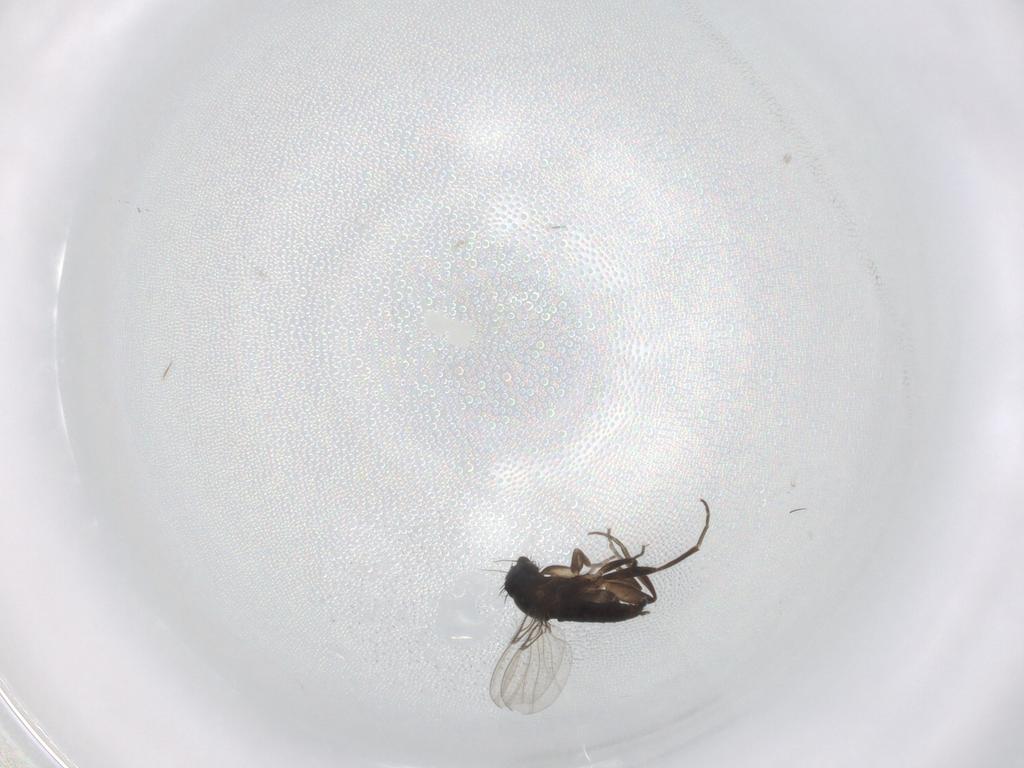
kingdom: Animalia
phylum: Arthropoda
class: Insecta
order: Diptera
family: Phoridae
